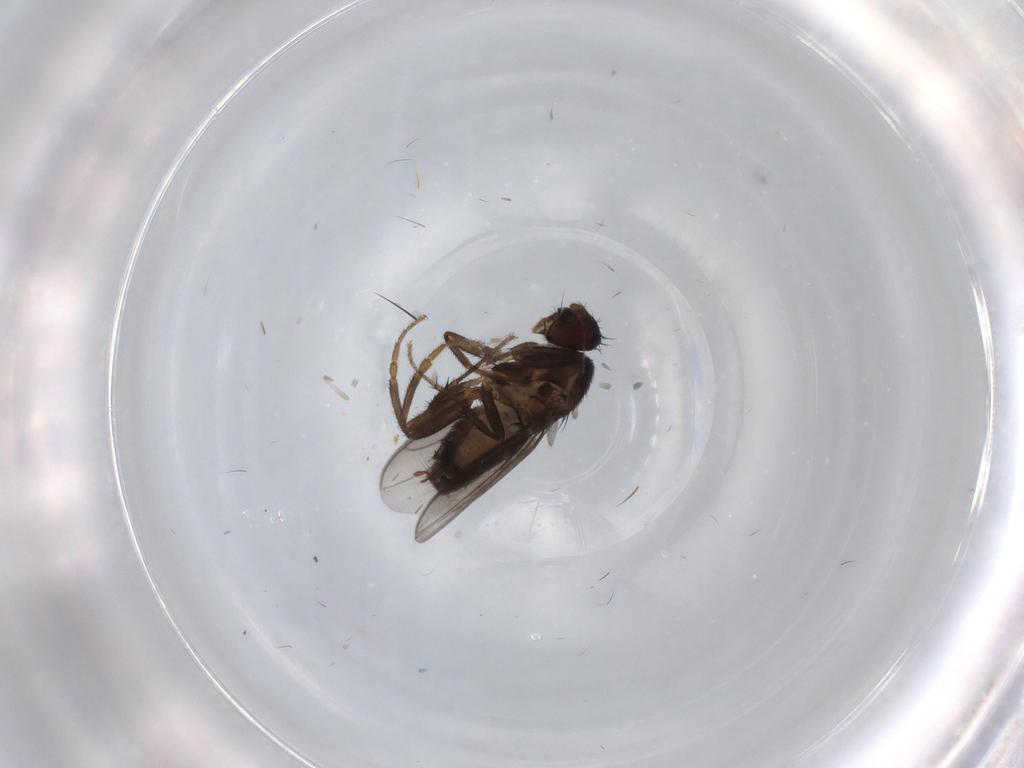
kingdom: Animalia
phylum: Arthropoda
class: Insecta
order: Diptera
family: Sphaeroceridae
